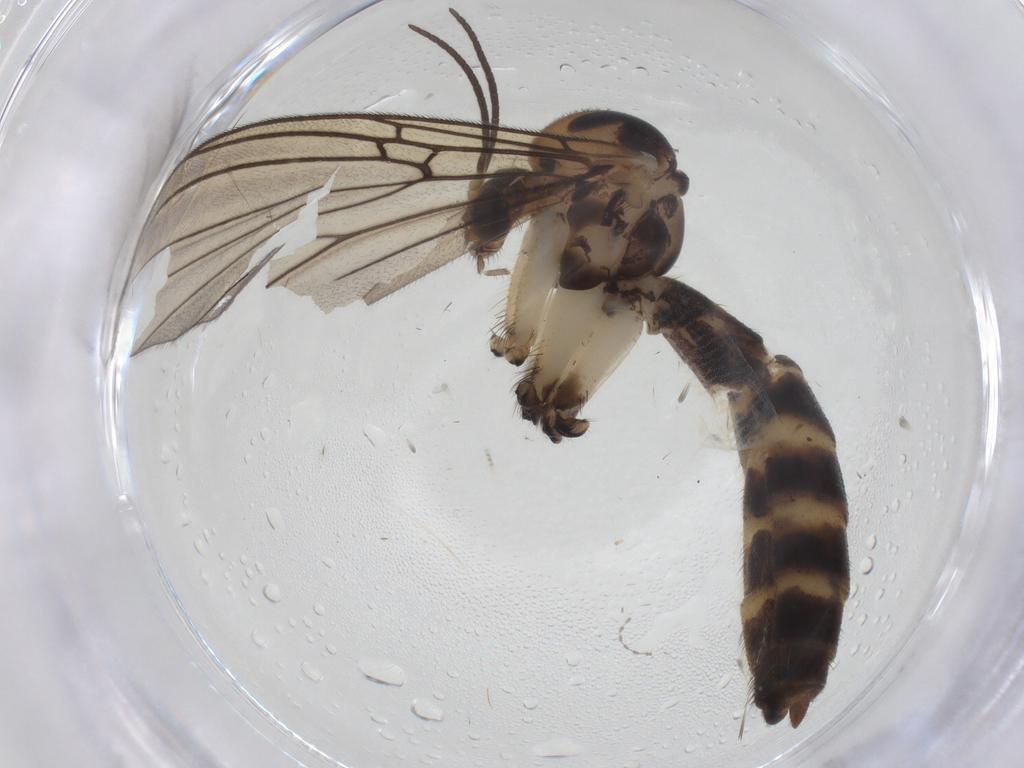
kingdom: Animalia
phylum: Arthropoda
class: Insecta
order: Diptera
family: Mycetophilidae
